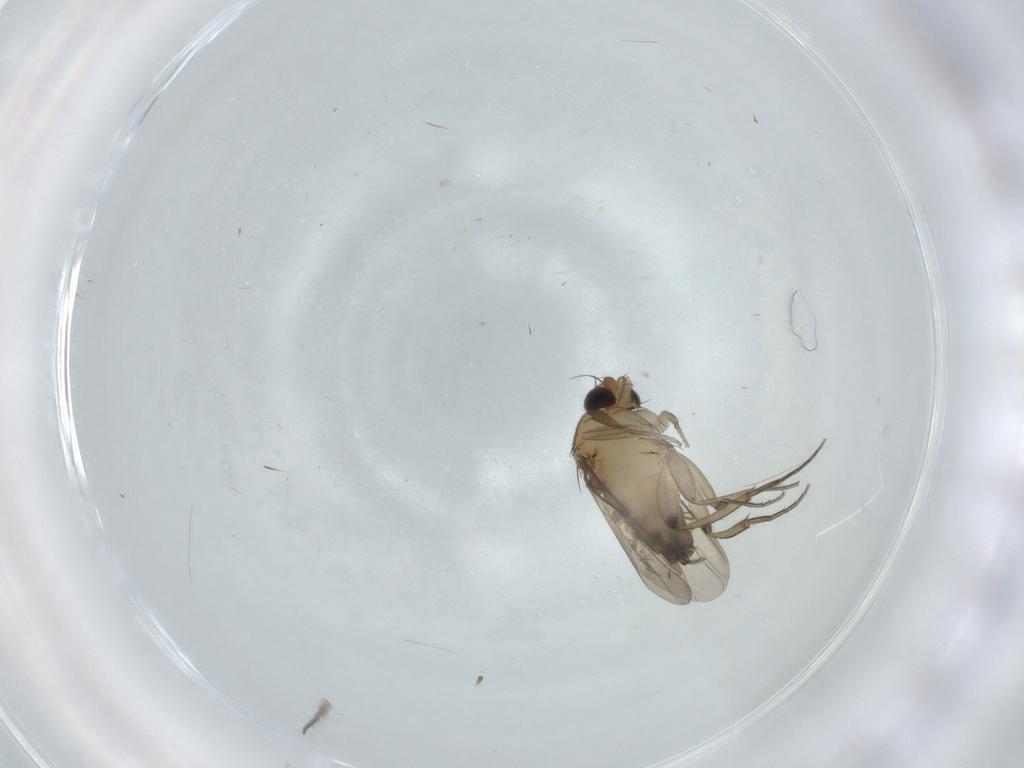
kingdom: Animalia
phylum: Arthropoda
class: Insecta
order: Diptera
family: Phoridae
